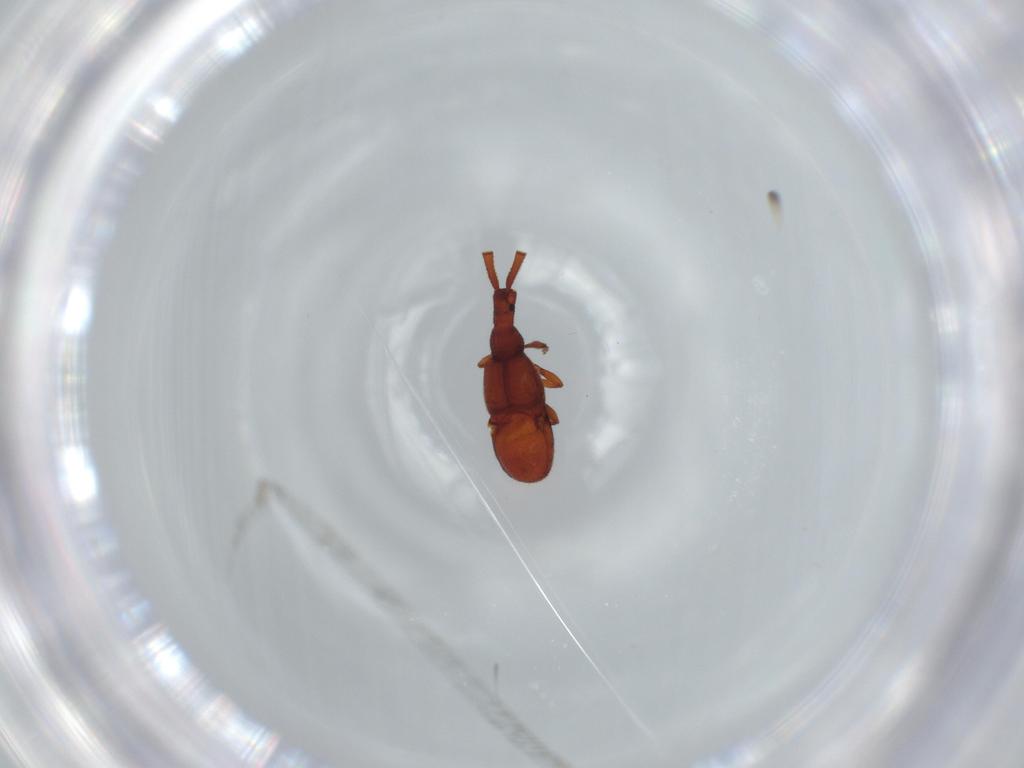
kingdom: Animalia
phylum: Arthropoda
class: Insecta
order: Coleoptera
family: Staphylinidae
